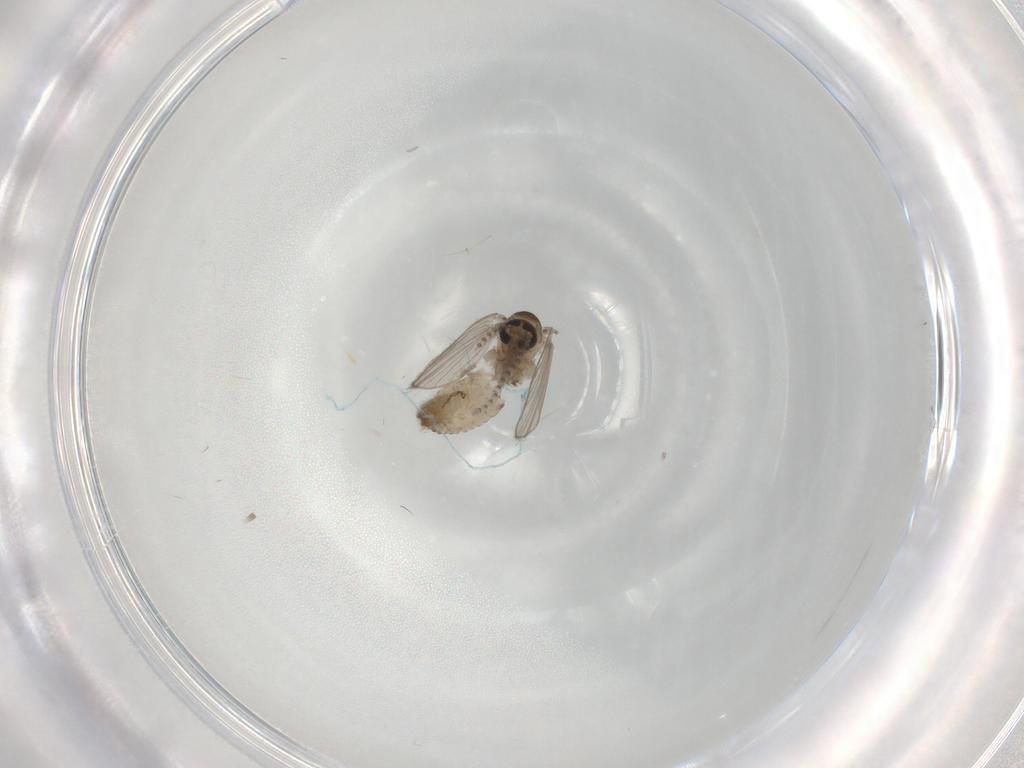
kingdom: Animalia
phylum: Arthropoda
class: Insecta
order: Diptera
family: Psychodidae
